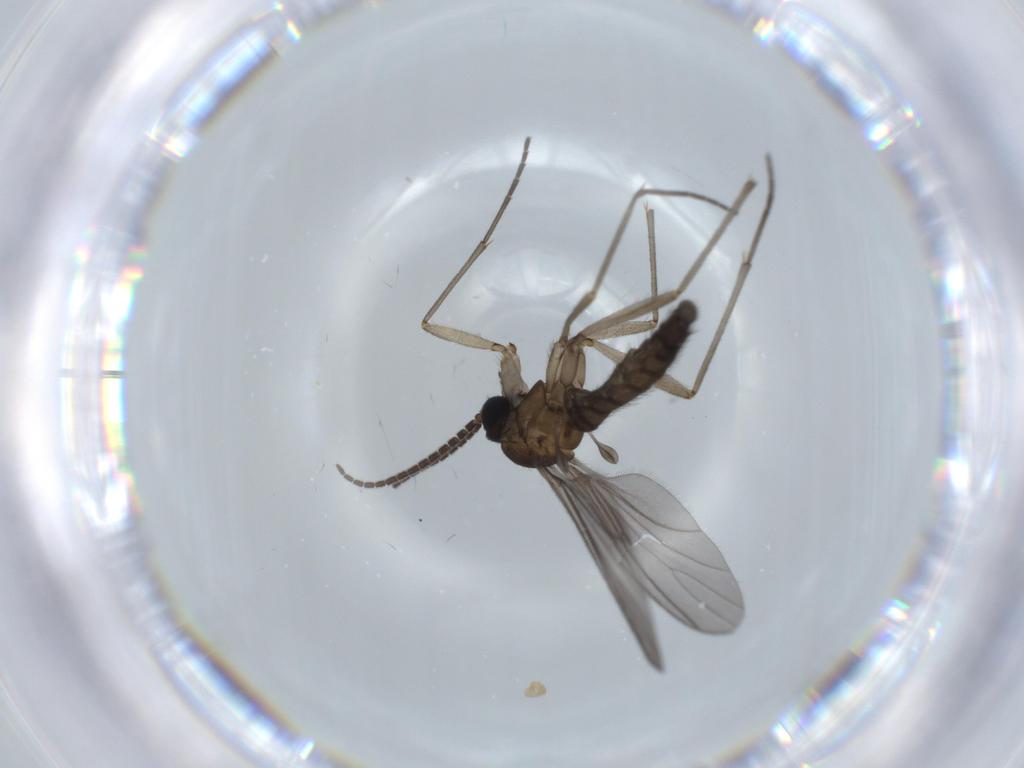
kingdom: Animalia
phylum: Arthropoda
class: Insecta
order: Diptera
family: Sciaridae
